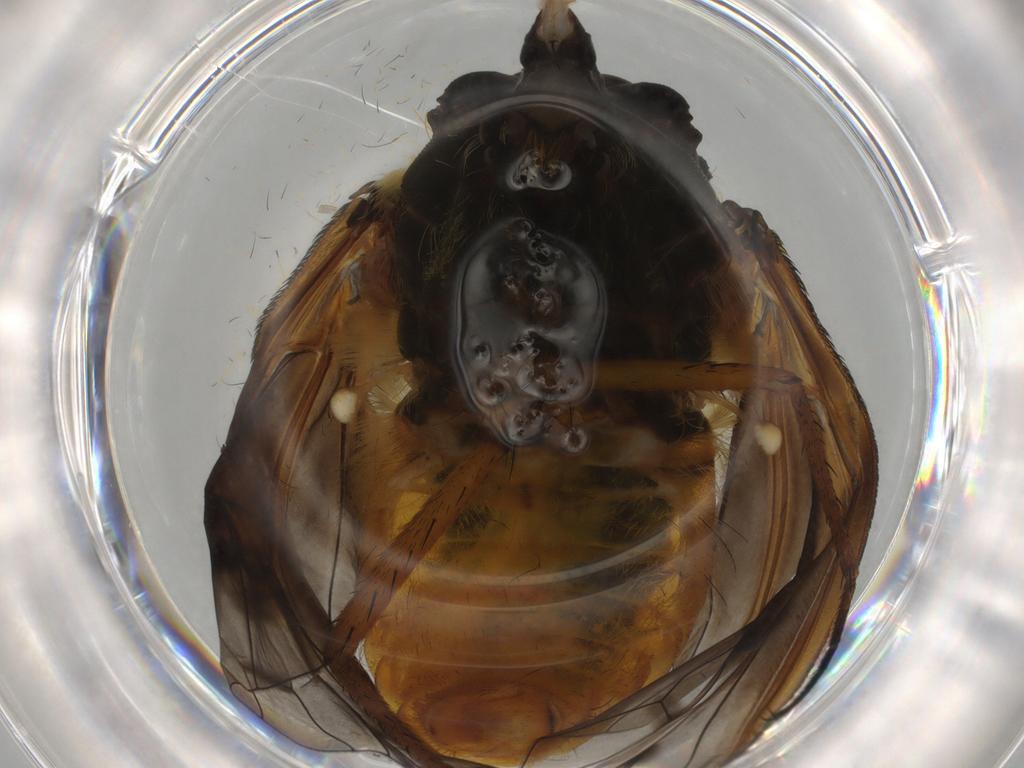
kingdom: Animalia
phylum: Arthropoda
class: Insecta
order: Diptera
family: Bombyliidae
